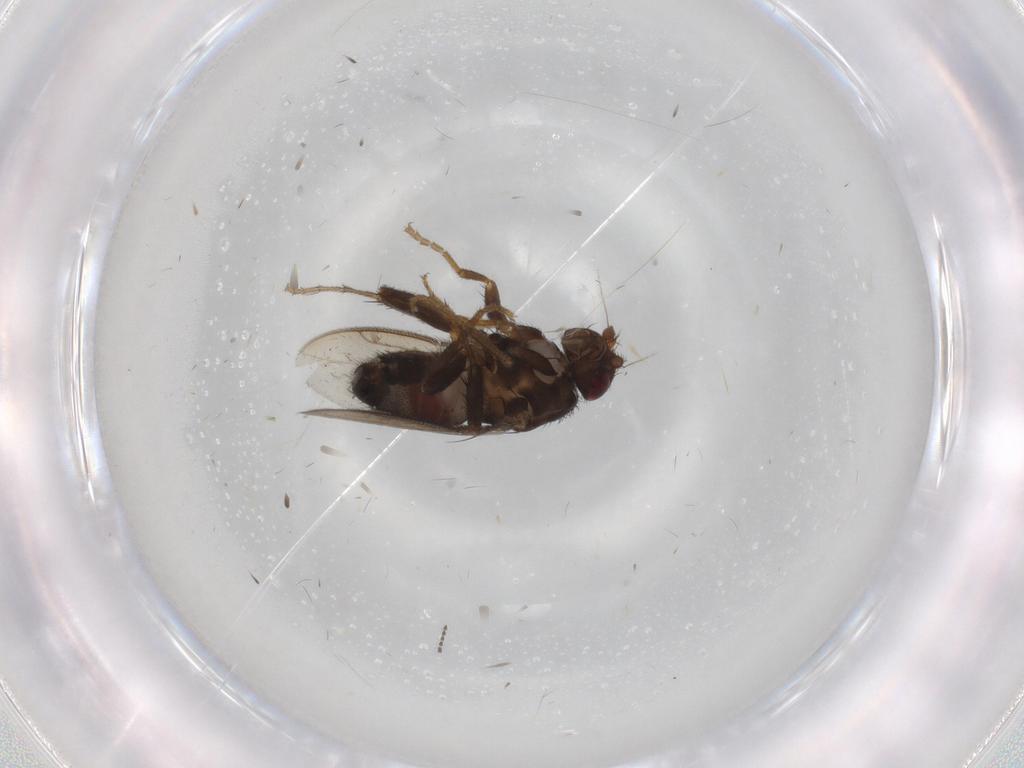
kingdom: Animalia
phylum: Arthropoda
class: Insecta
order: Diptera
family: Sphaeroceridae
